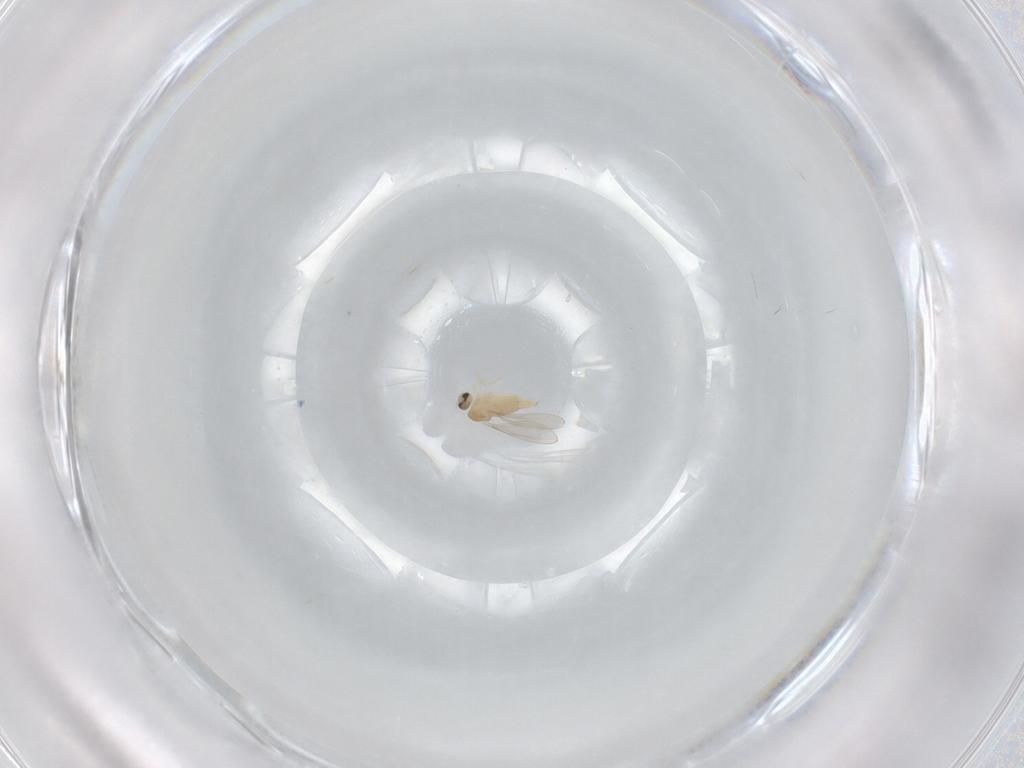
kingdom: Animalia
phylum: Arthropoda
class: Insecta
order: Diptera
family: Cecidomyiidae
